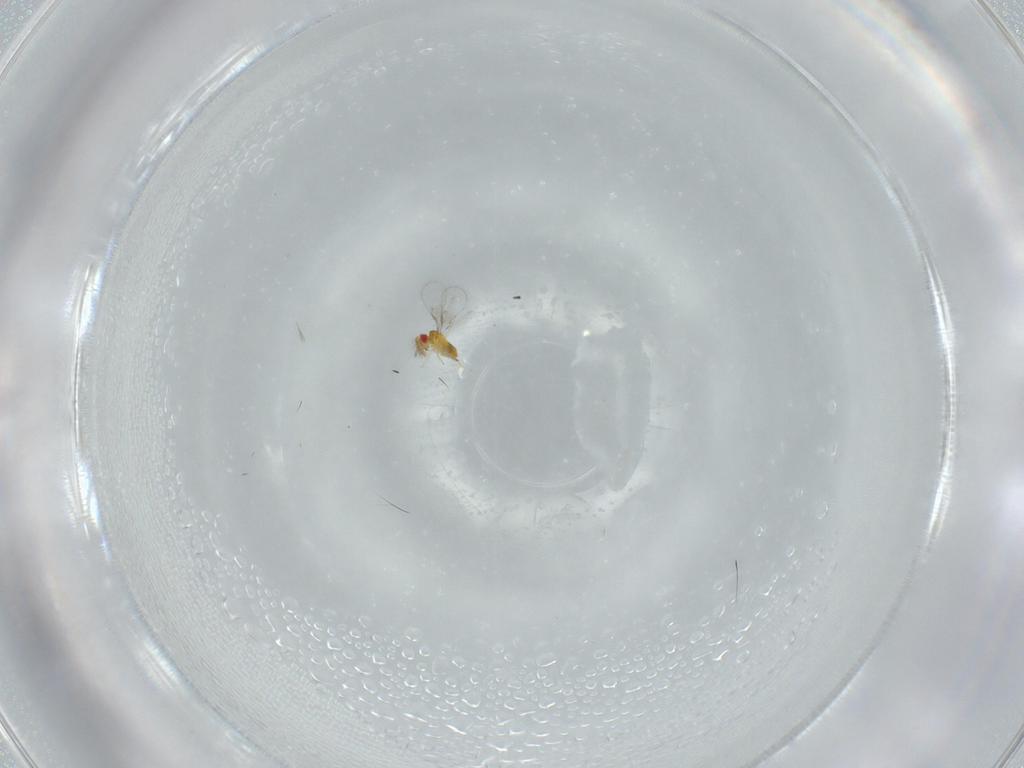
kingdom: Animalia
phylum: Arthropoda
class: Insecta
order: Hymenoptera
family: Trichogrammatidae
